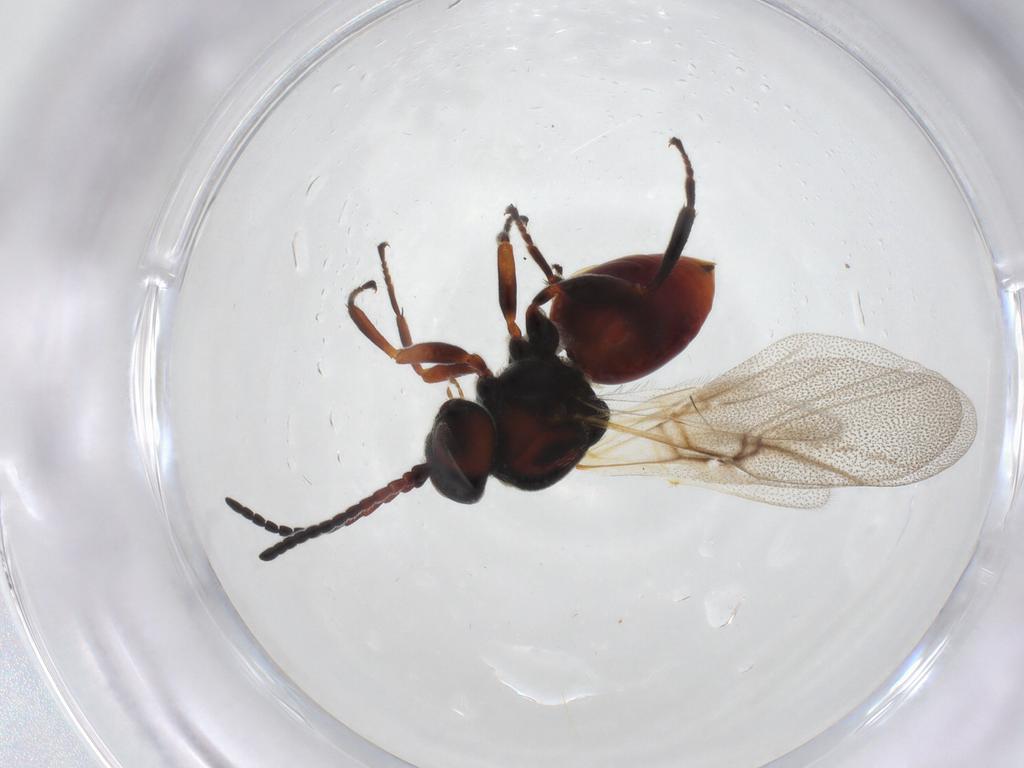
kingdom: Animalia
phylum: Arthropoda
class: Insecta
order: Hymenoptera
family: Cynipidae
